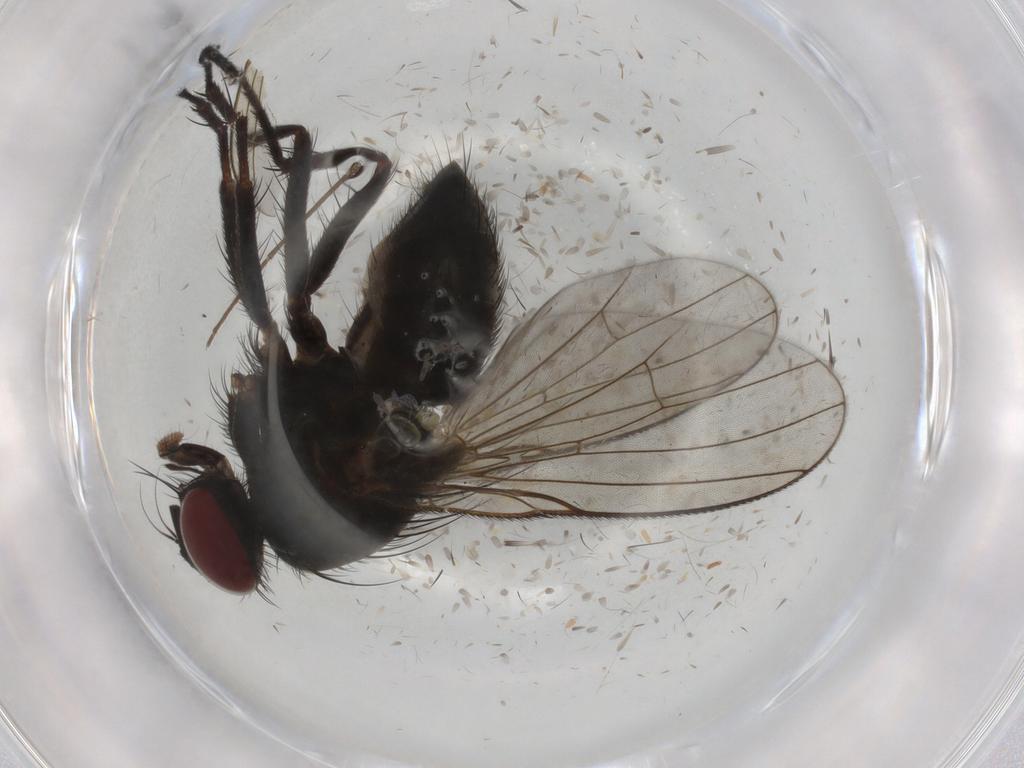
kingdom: Animalia
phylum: Arthropoda
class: Insecta
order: Diptera
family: Muscidae
